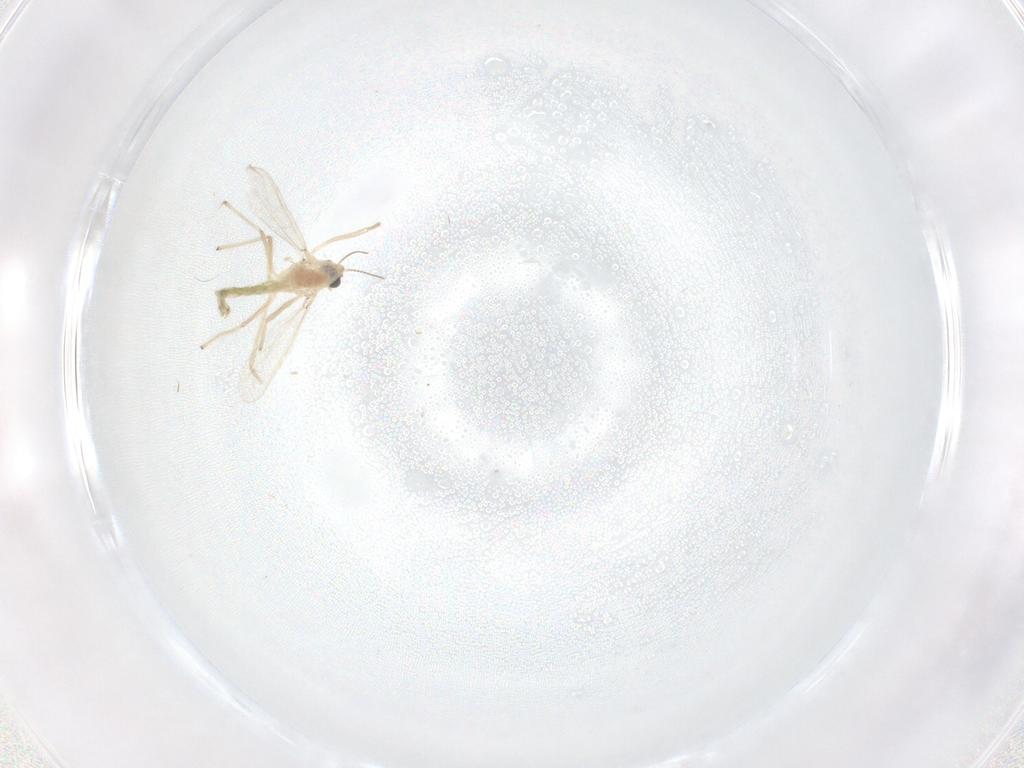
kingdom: Animalia
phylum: Arthropoda
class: Insecta
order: Diptera
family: Chironomidae
